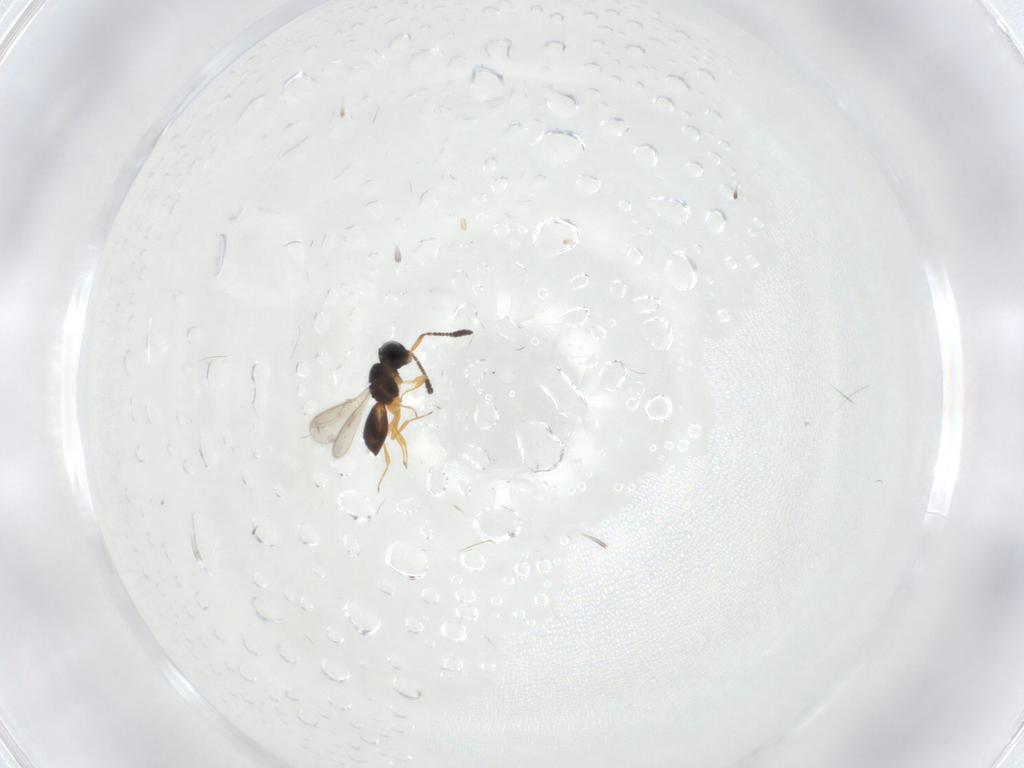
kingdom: Animalia
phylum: Arthropoda
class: Insecta
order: Hymenoptera
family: Scelionidae
